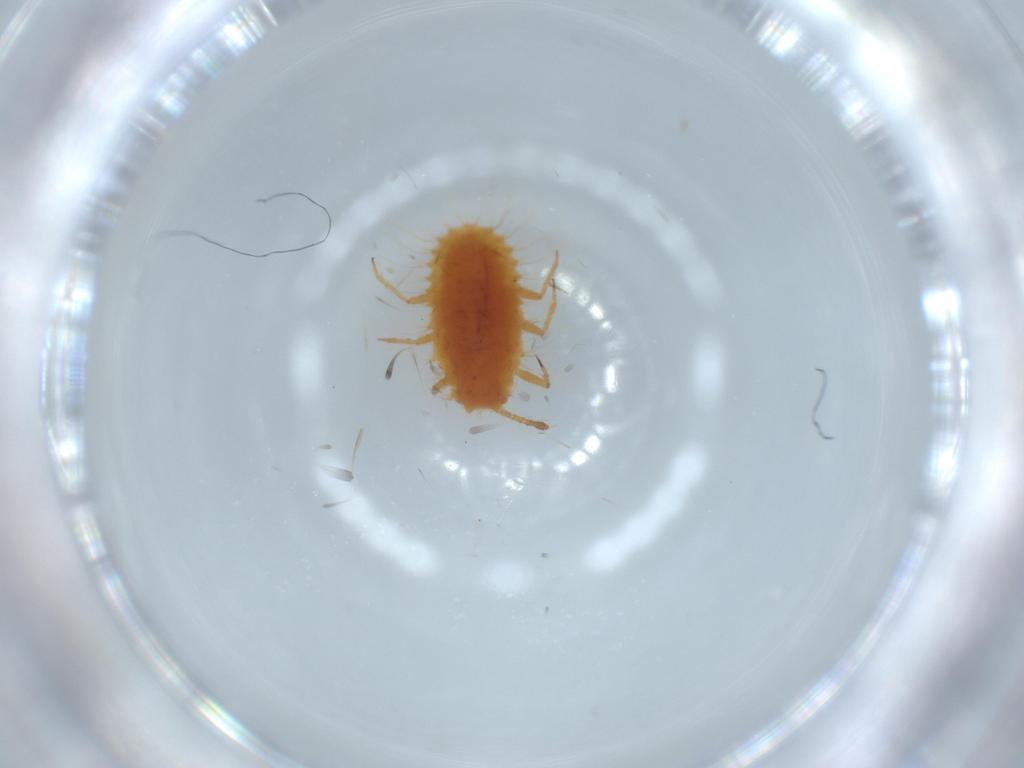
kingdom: Animalia
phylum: Arthropoda
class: Insecta
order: Hemiptera
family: Coccoidea_incertae_sedis
